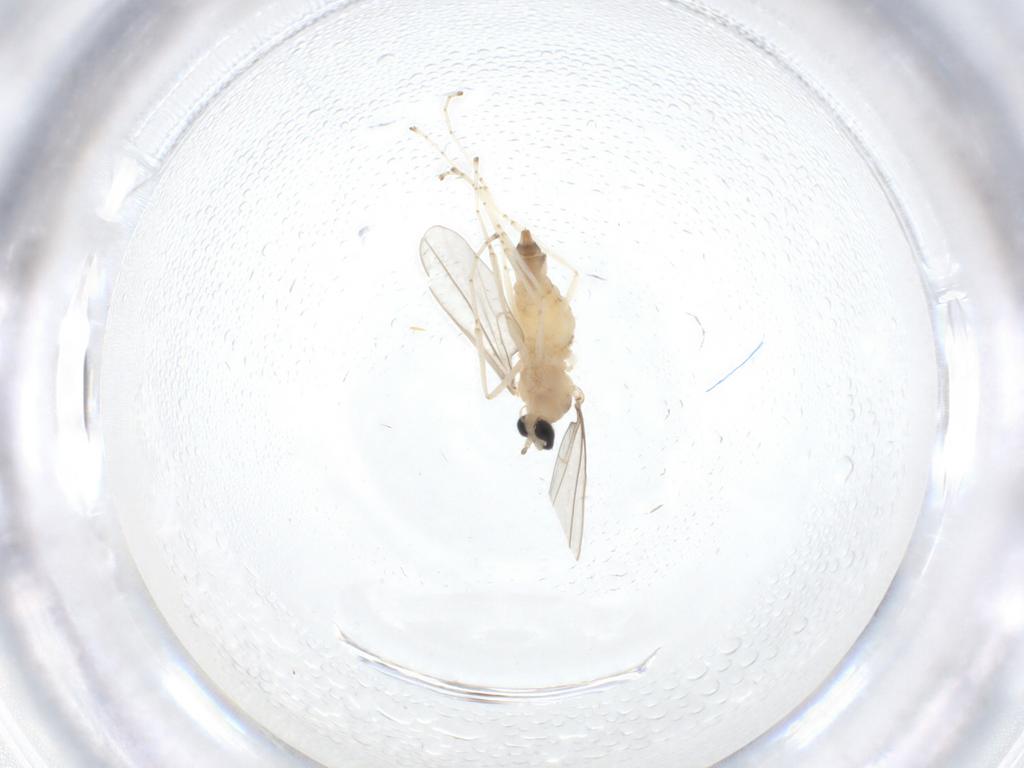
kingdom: Animalia
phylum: Arthropoda
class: Insecta
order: Diptera
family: Cecidomyiidae
